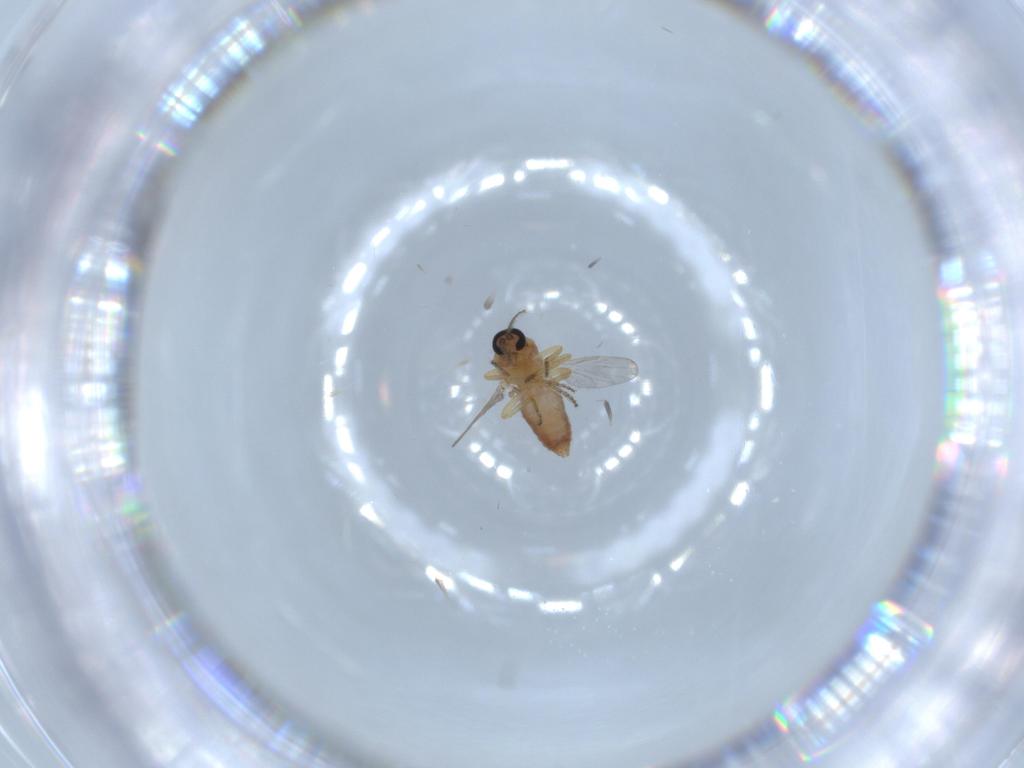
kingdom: Animalia
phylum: Arthropoda
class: Insecta
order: Diptera
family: Ceratopogonidae
